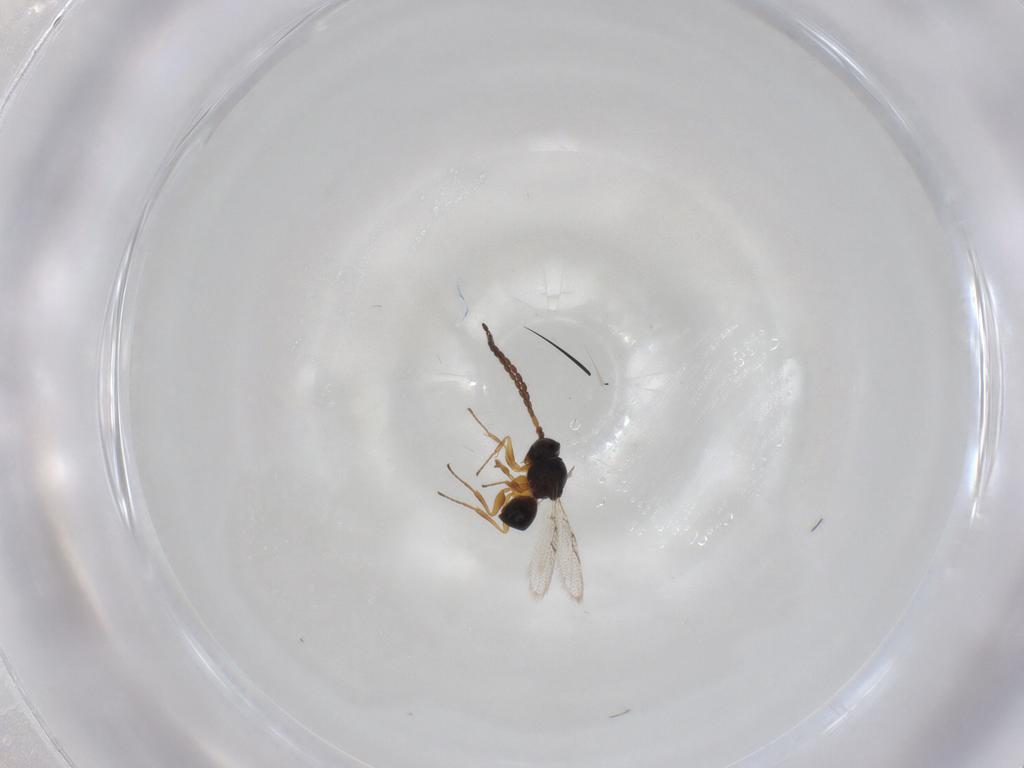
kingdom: Animalia
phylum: Arthropoda
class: Insecta
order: Hymenoptera
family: Figitidae
